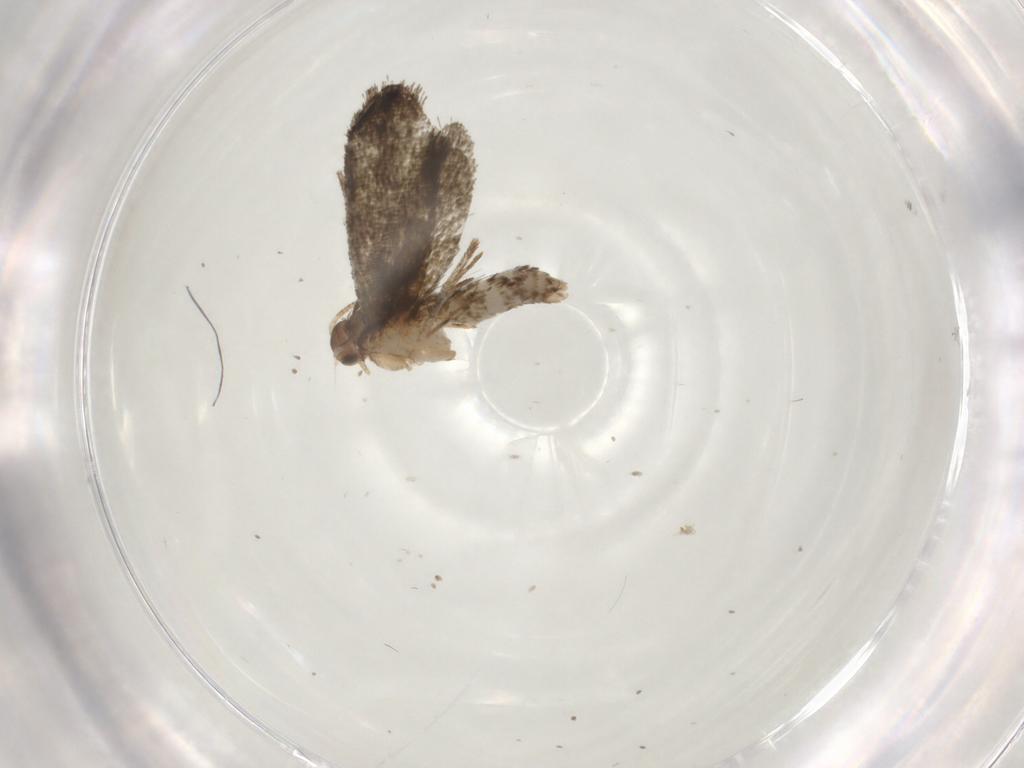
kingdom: Animalia
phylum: Arthropoda
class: Insecta
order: Lepidoptera
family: Tineidae
